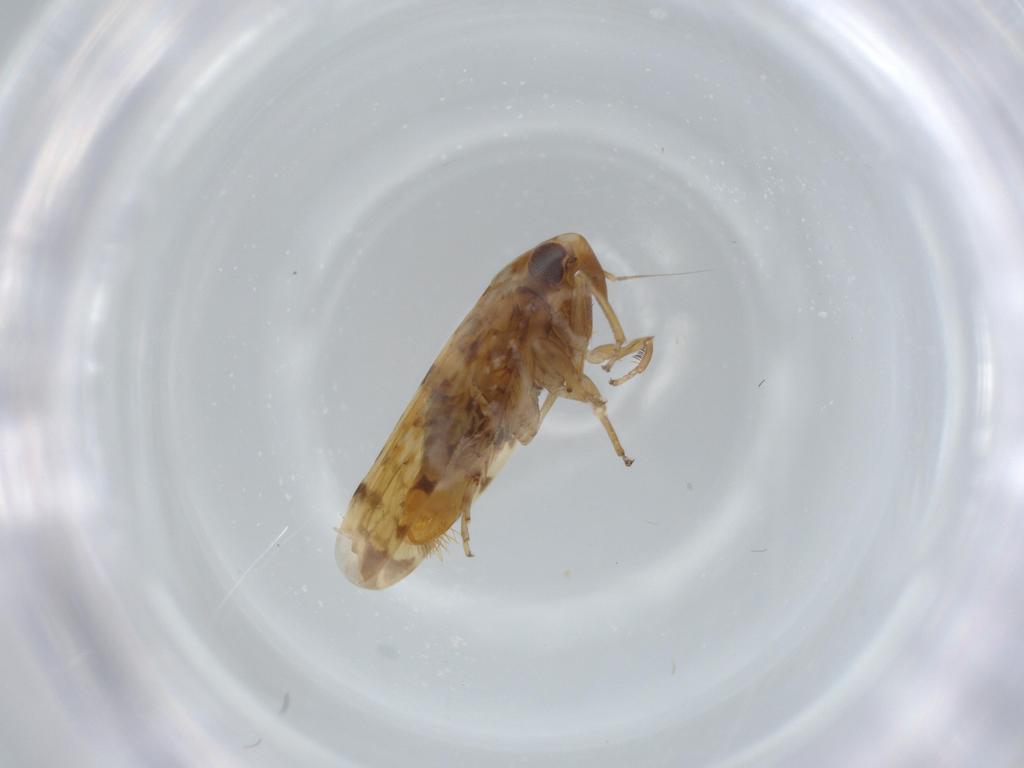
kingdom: Animalia
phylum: Arthropoda
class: Insecta
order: Hemiptera
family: Cicadellidae
